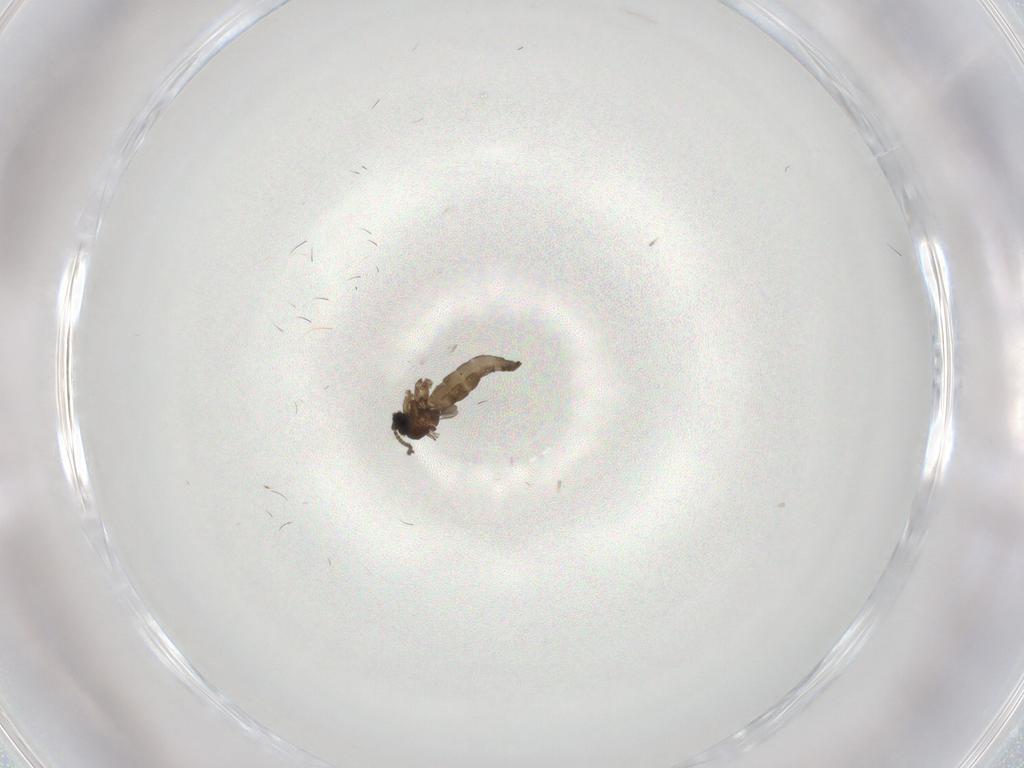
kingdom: Animalia
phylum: Arthropoda
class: Insecta
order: Diptera
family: Sciaridae
